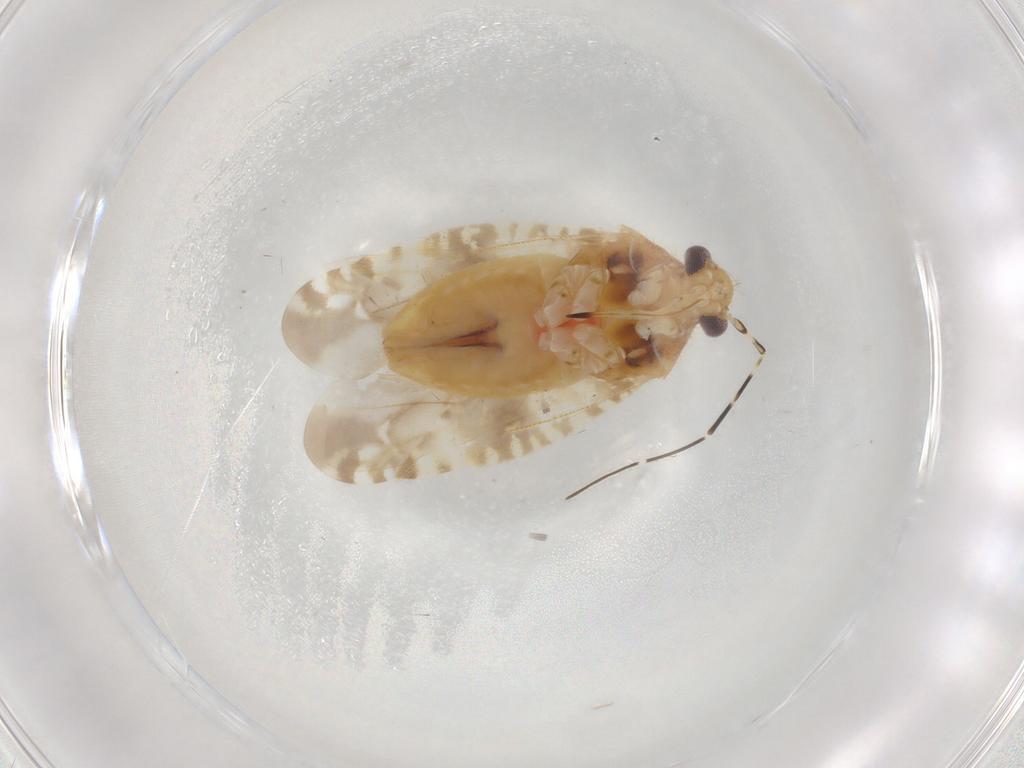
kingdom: Animalia
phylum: Arthropoda
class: Insecta
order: Hemiptera
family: Miridae
